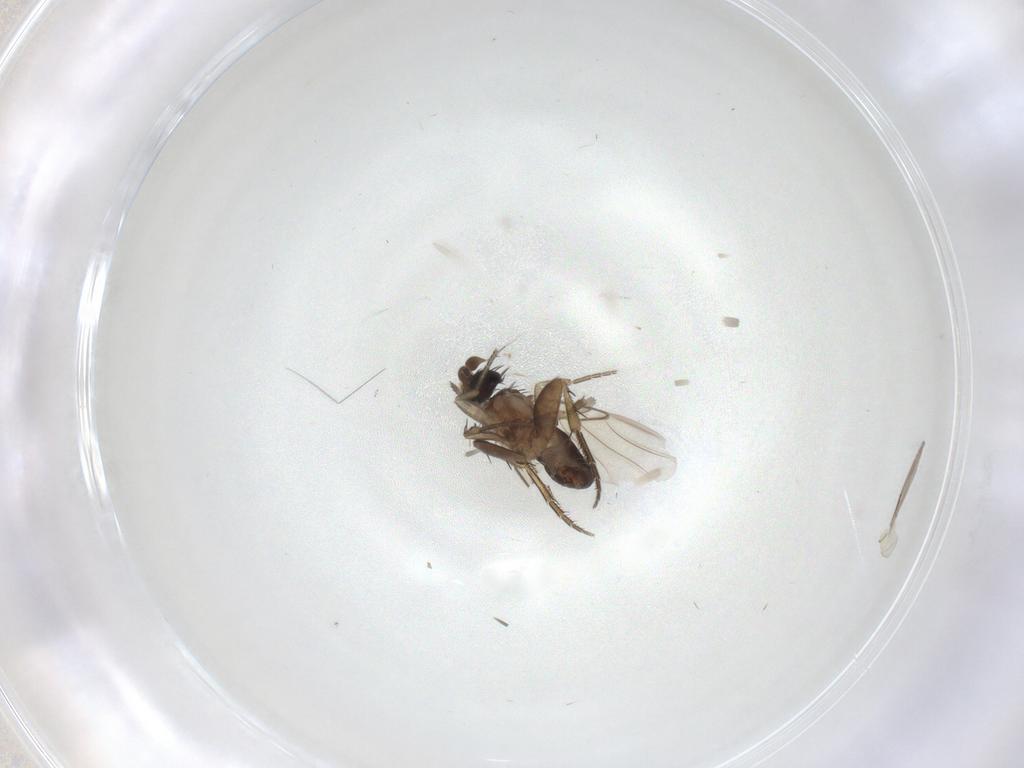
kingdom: Animalia
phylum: Arthropoda
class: Insecta
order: Diptera
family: Phoridae
